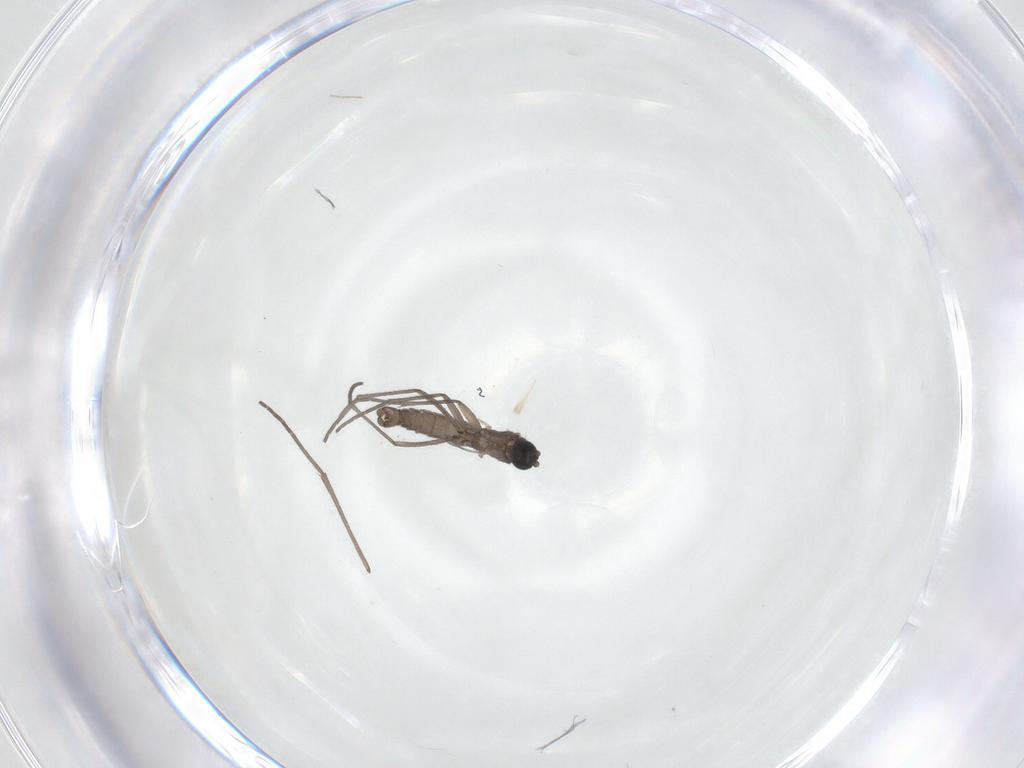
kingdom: Animalia
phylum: Arthropoda
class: Insecta
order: Diptera
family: Sciaridae
